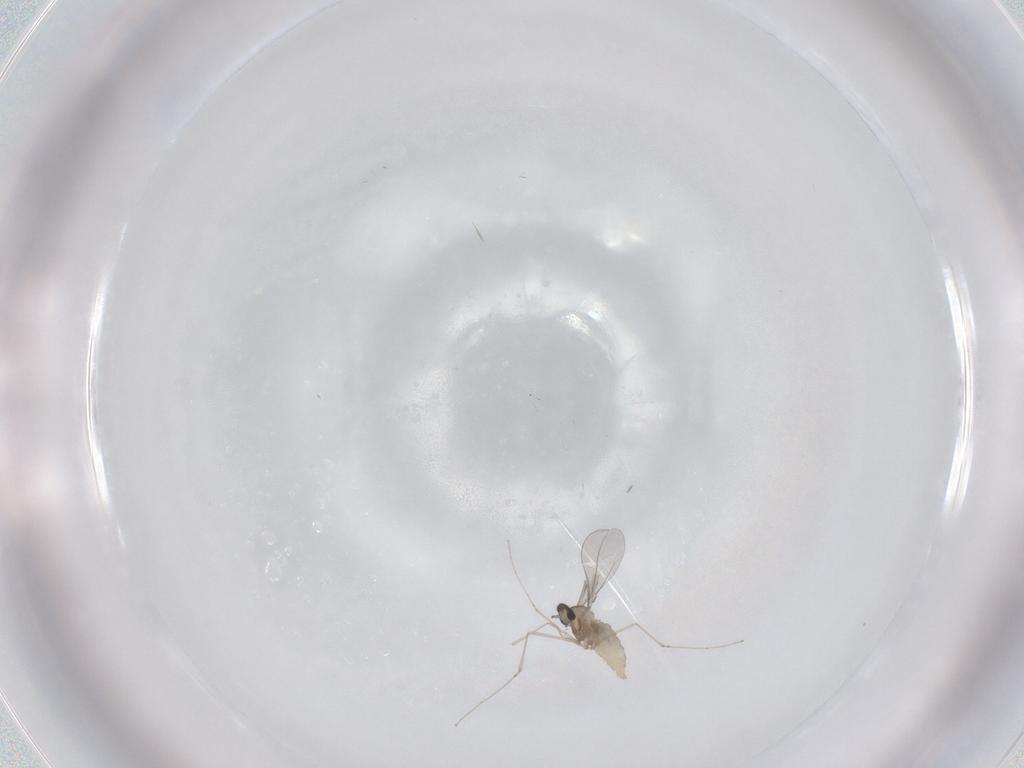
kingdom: Animalia
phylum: Arthropoda
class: Insecta
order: Diptera
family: Cecidomyiidae
